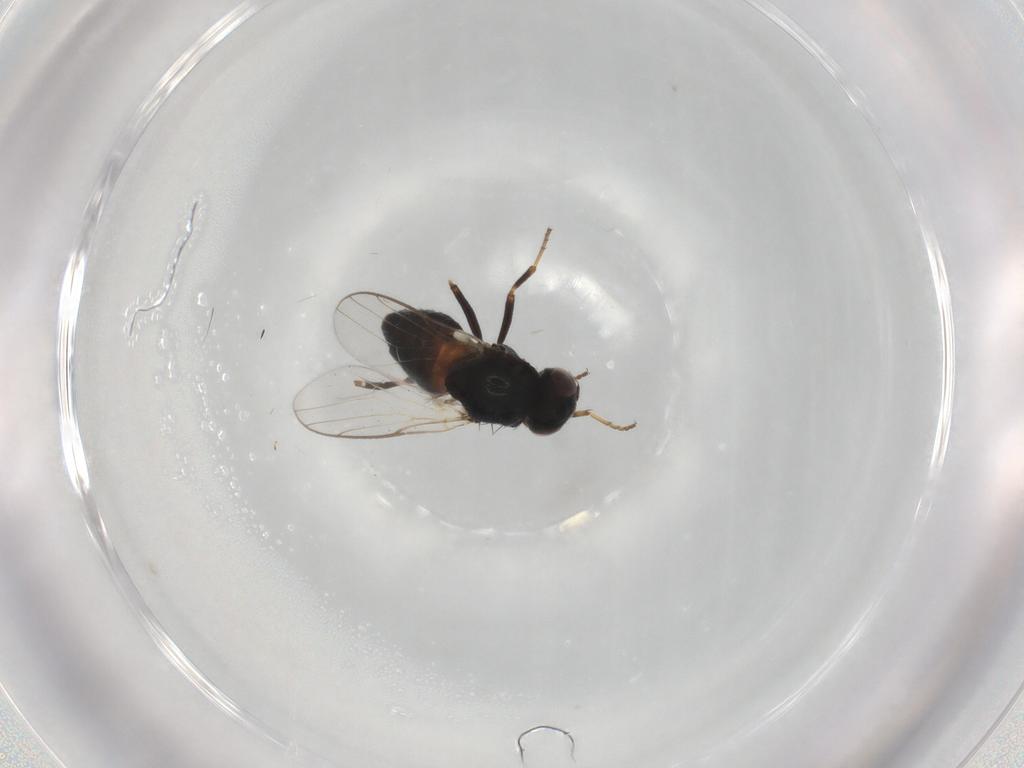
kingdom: Animalia
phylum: Arthropoda
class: Insecta
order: Diptera
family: Chloropidae
